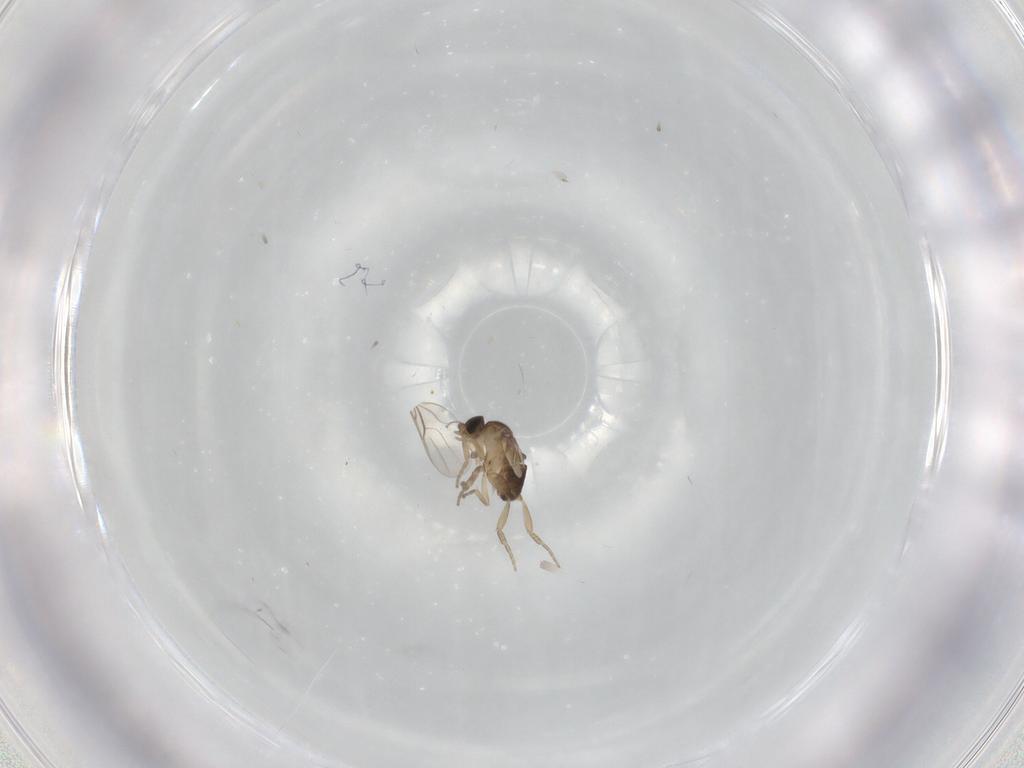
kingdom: Animalia
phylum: Arthropoda
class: Insecta
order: Diptera
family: Phoridae
